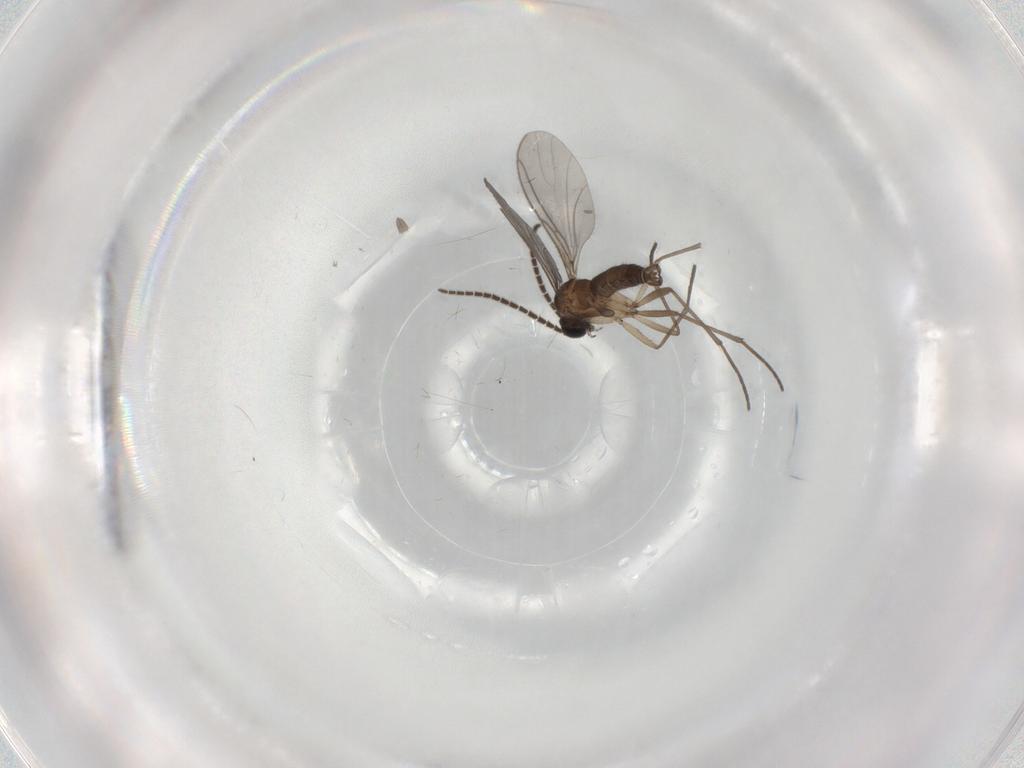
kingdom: Animalia
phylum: Arthropoda
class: Insecta
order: Diptera
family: Sciaridae
